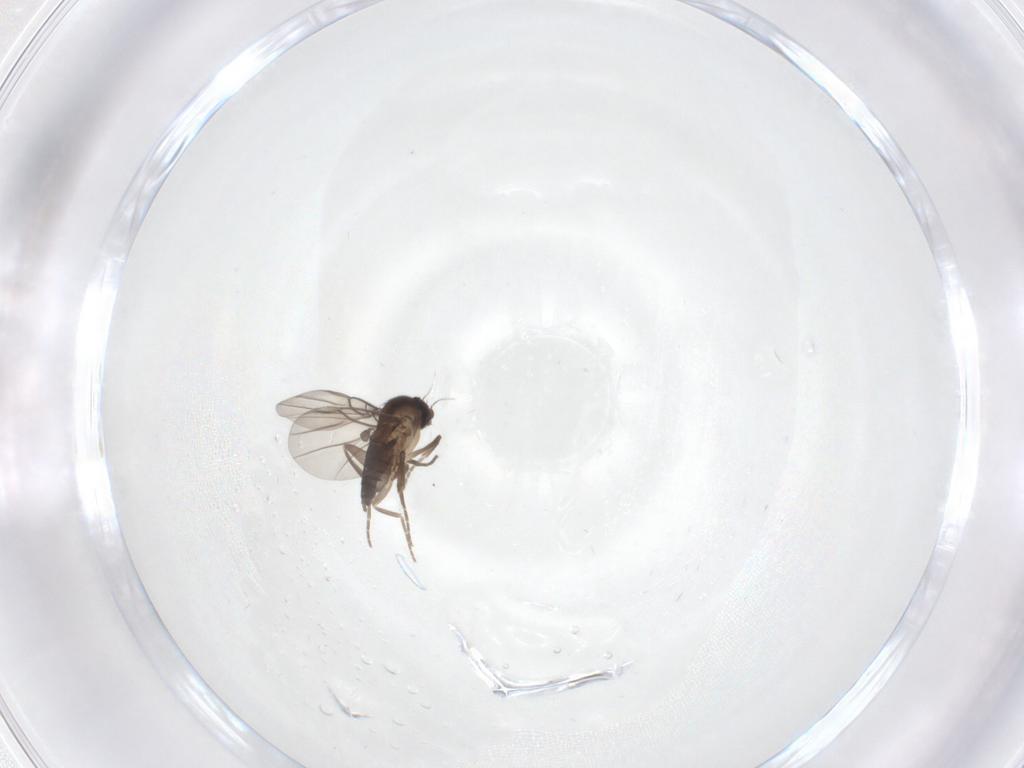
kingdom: Animalia
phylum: Arthropoda
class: Insecta
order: Diptera
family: Phoridae
